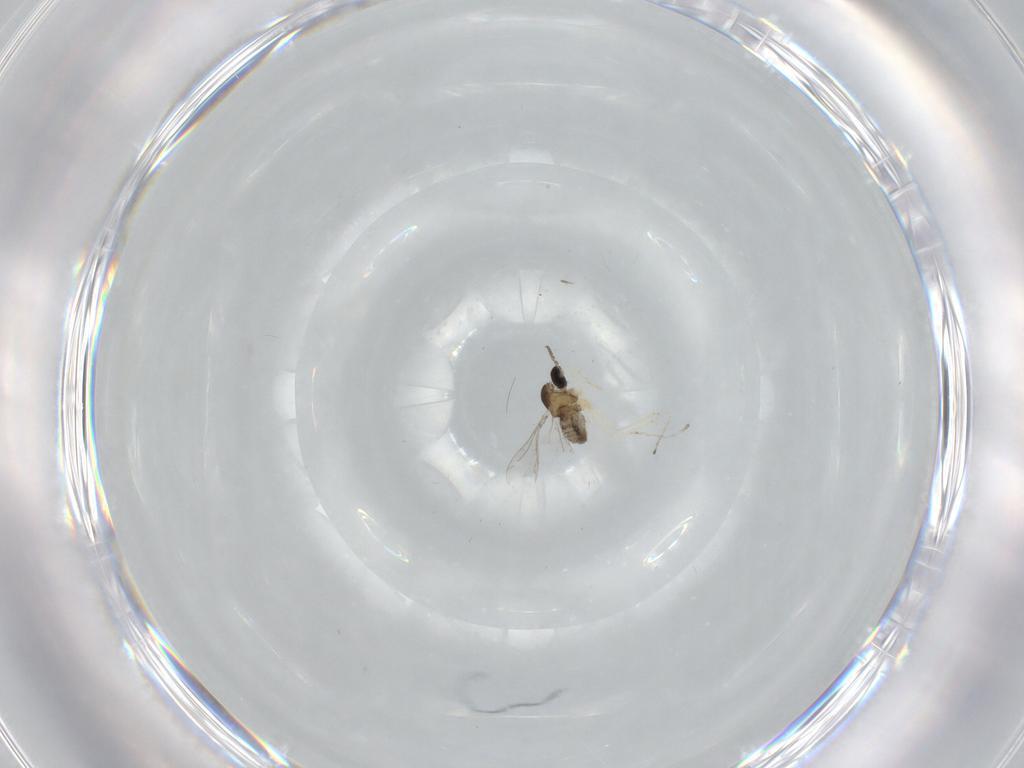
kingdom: Animalia
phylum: Arthropoda
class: Insecta
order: Diptera
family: Cecidomyiidae
